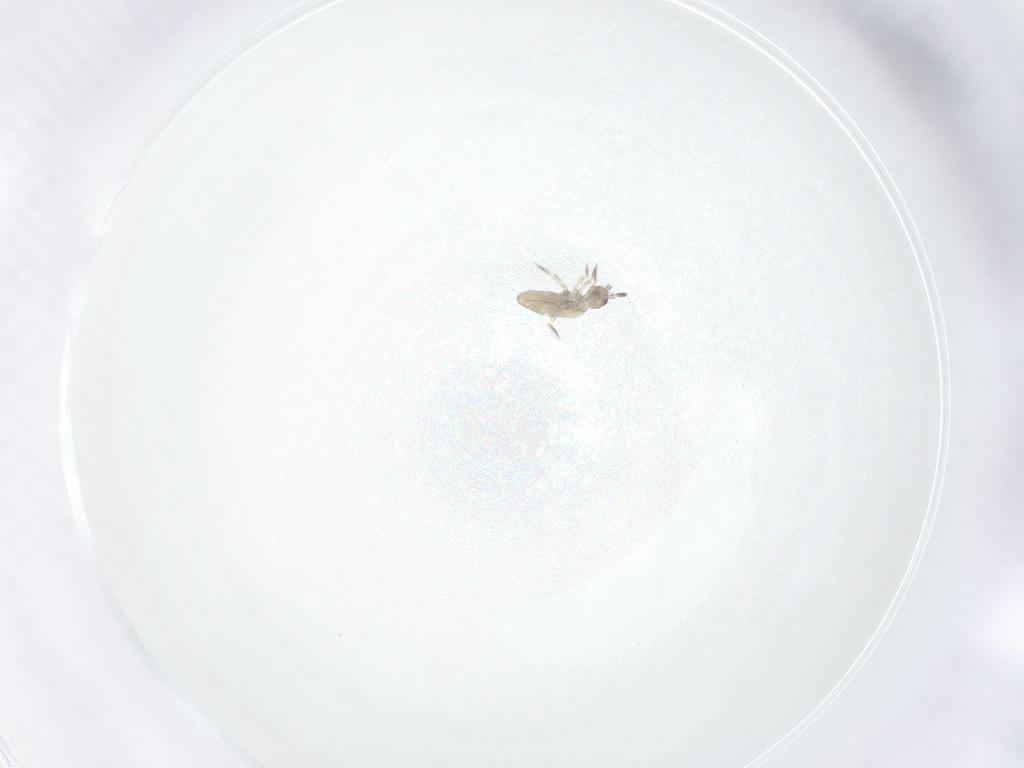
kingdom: Animalia
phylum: Arthropoda
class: Collembola
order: Entomobryomorpha
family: Entomobryidae
